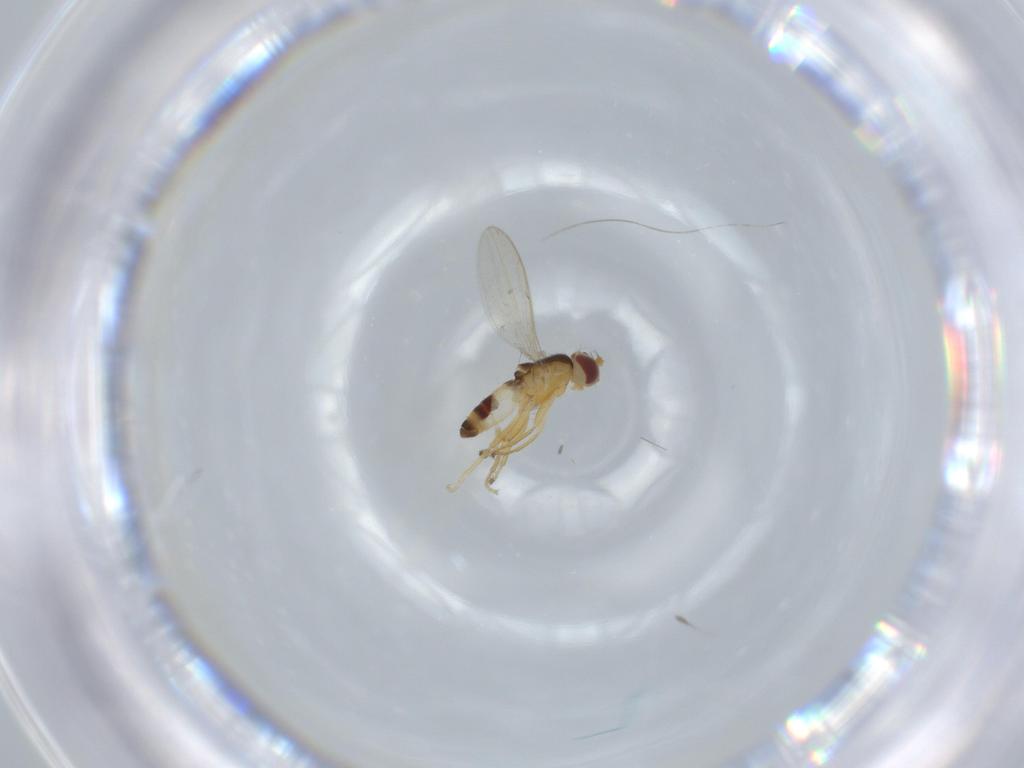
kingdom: Animalia
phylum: Arthropoda
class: Insecta
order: Diptera
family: Periscelididae
